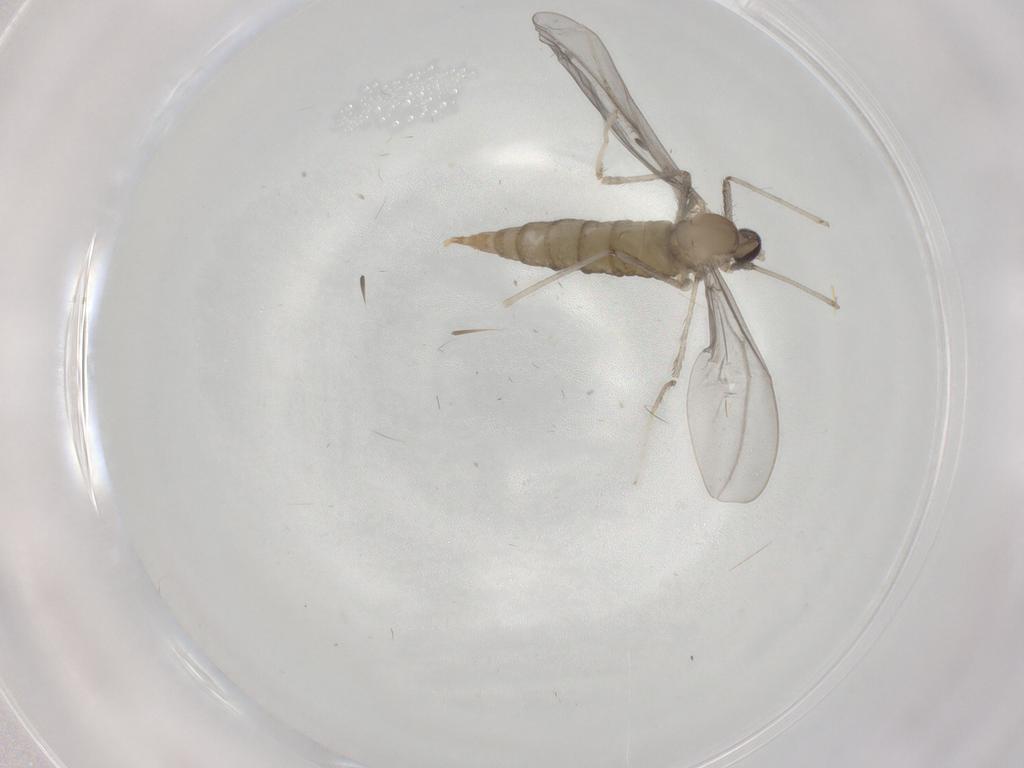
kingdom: Animalia
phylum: Arthropoda
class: Insecta
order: Diptera
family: Cecidomyiidae
